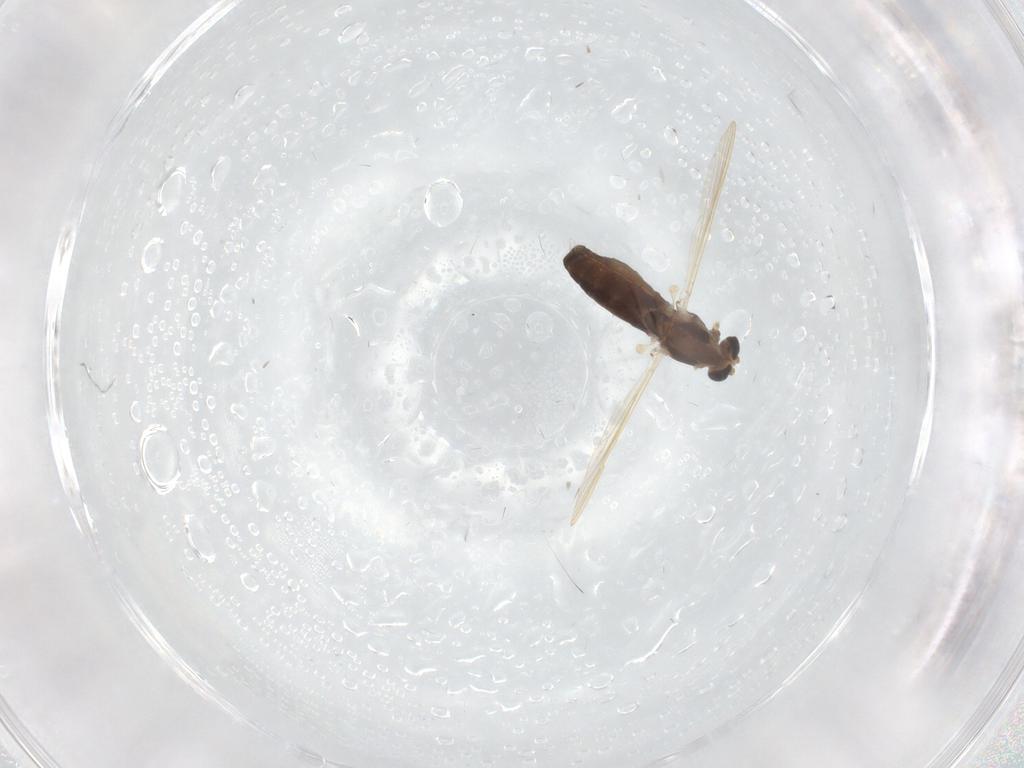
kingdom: Animalia
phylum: Arthropoda
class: Insecta
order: Diptera
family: Chironomidae
